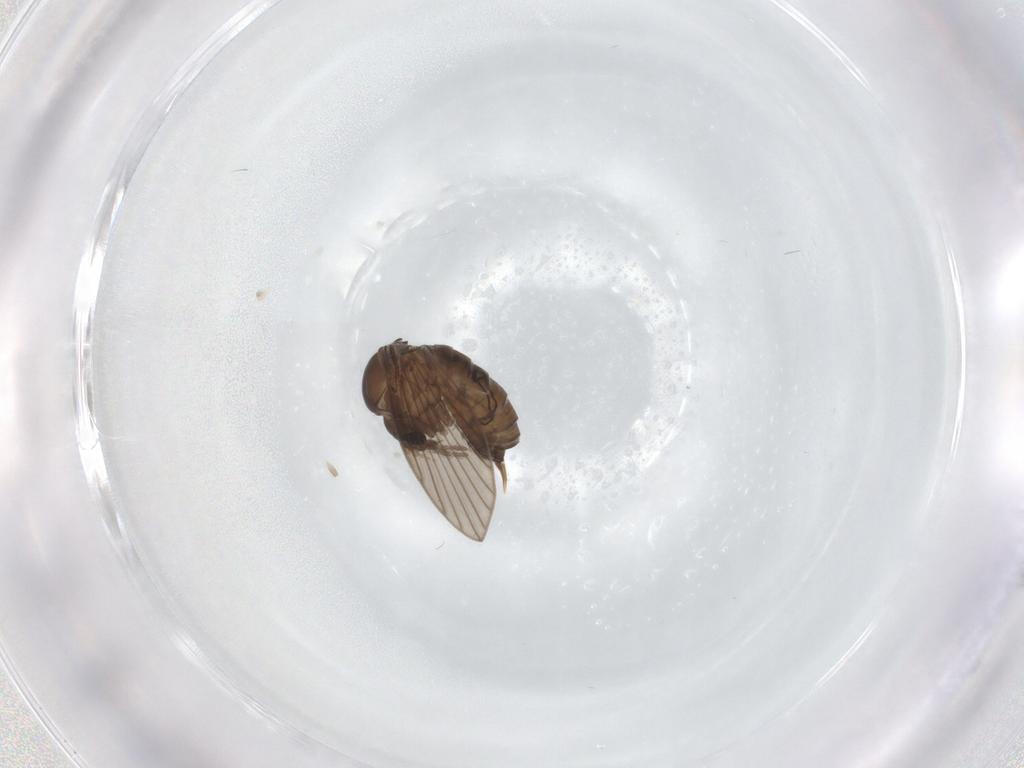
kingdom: Animalia
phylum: Arthropoda
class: Insecta
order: Diptera
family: Psychodidae
